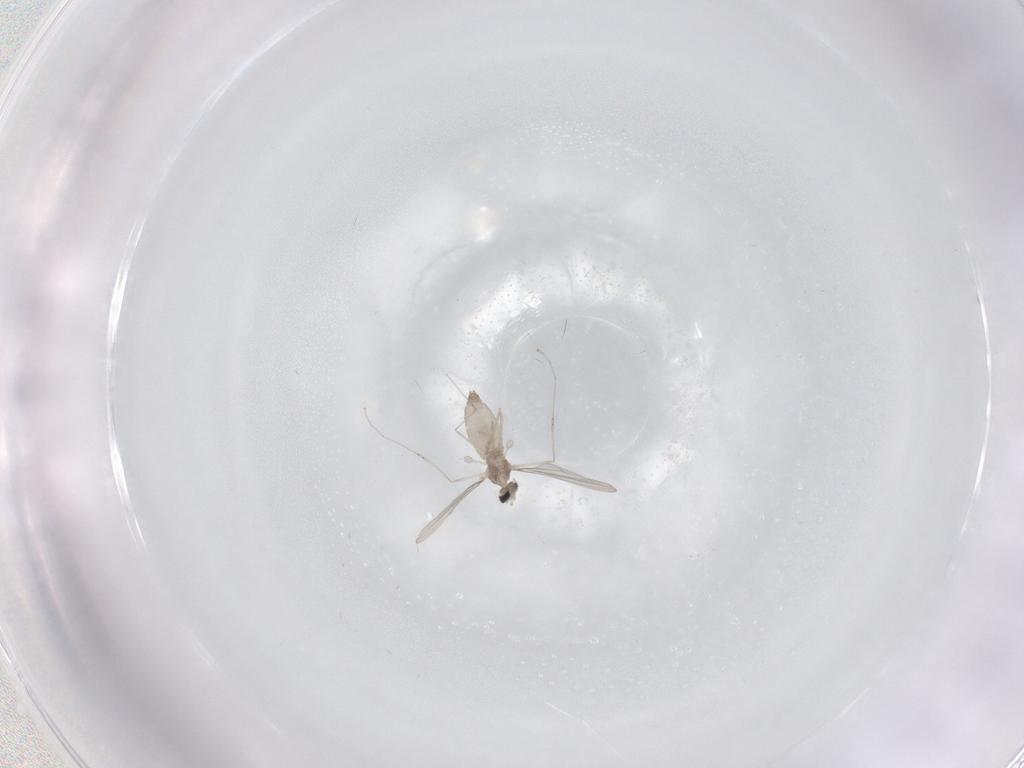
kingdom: Animalia
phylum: Arthropoda
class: Insecta
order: Diptera
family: Cecidomyiidae
